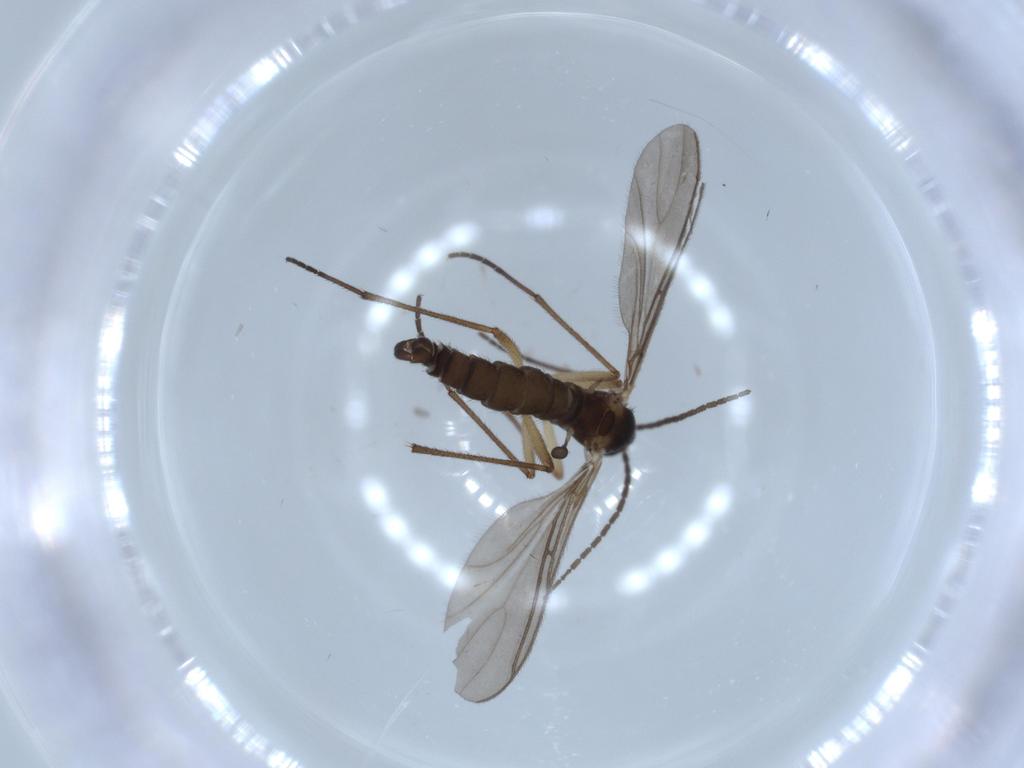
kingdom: Animalia
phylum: Arthropoda
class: Insecta
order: Diptera
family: Sciaridae
